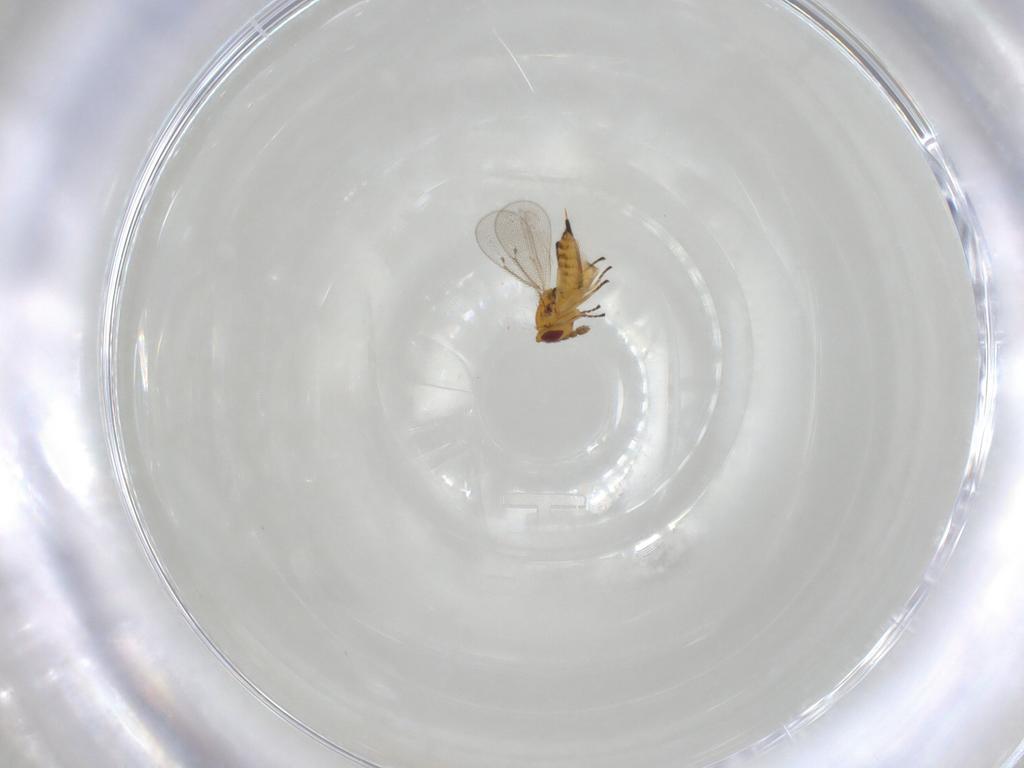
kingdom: Animalia
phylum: Arthropoda
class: Insecta
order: Hymenoptera
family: Eulophidae
